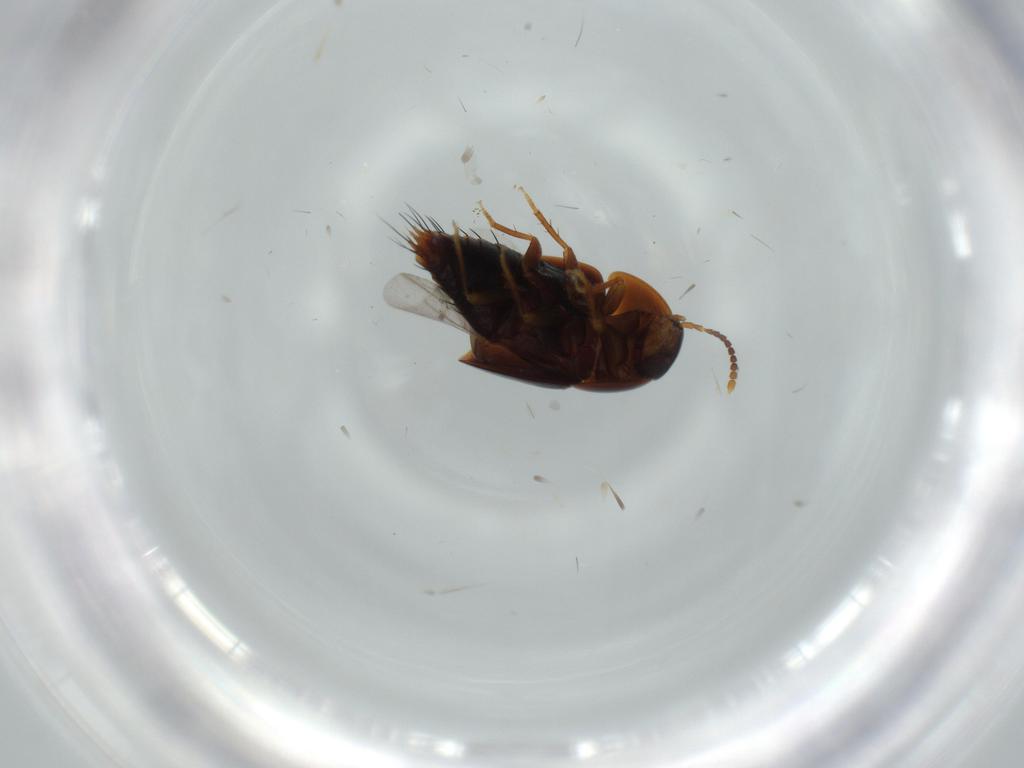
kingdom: Animalia
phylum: Arthropoda
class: Insecta
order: Coleoptera
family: Staphylinidae
